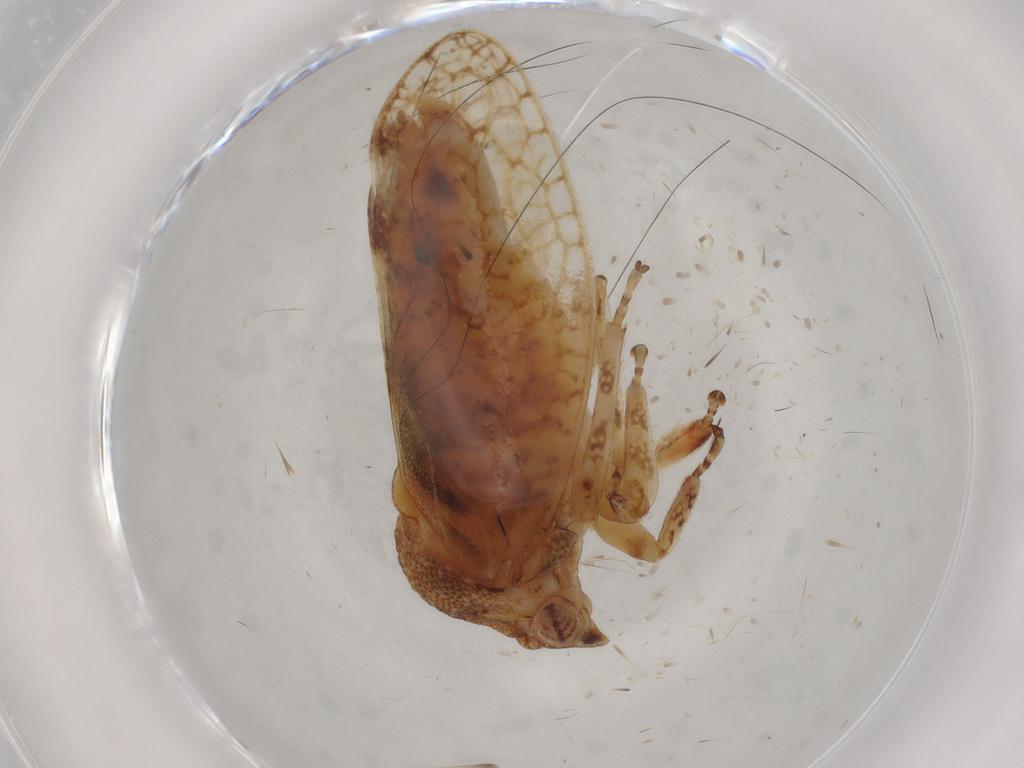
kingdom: Animalia
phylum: Arthropoda
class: Insecta
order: Hemiptera
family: Cicadellidae
